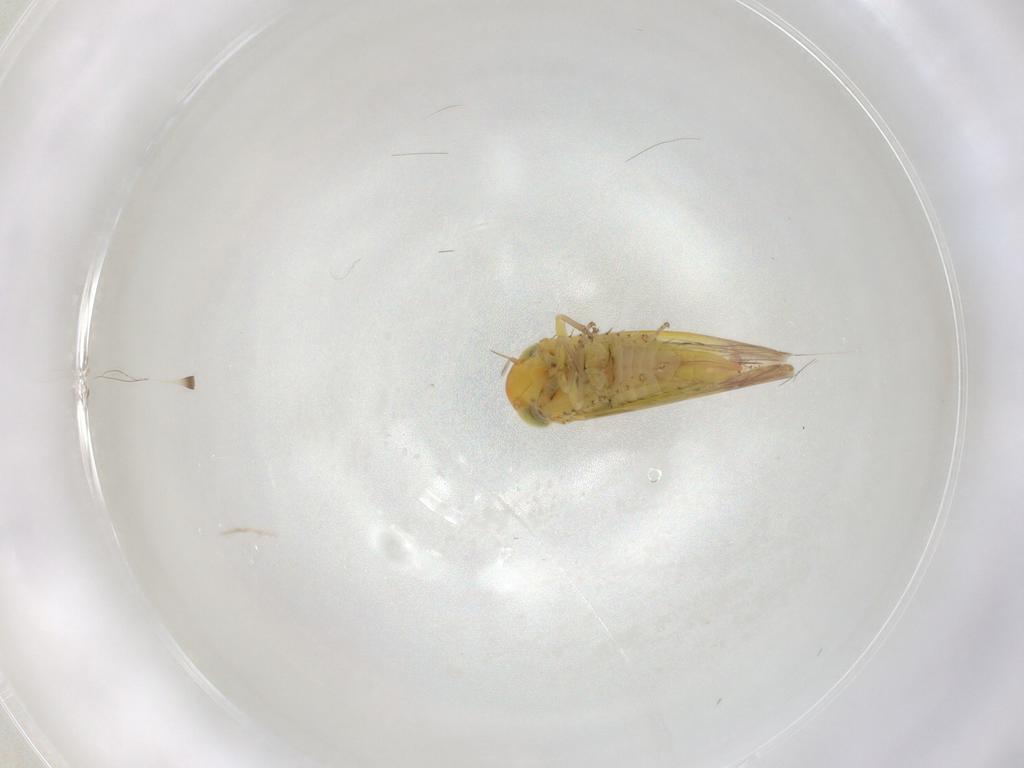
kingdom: Animalia
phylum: Arthropoda
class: Insecta
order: Hemiptera
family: Cicadellidae
